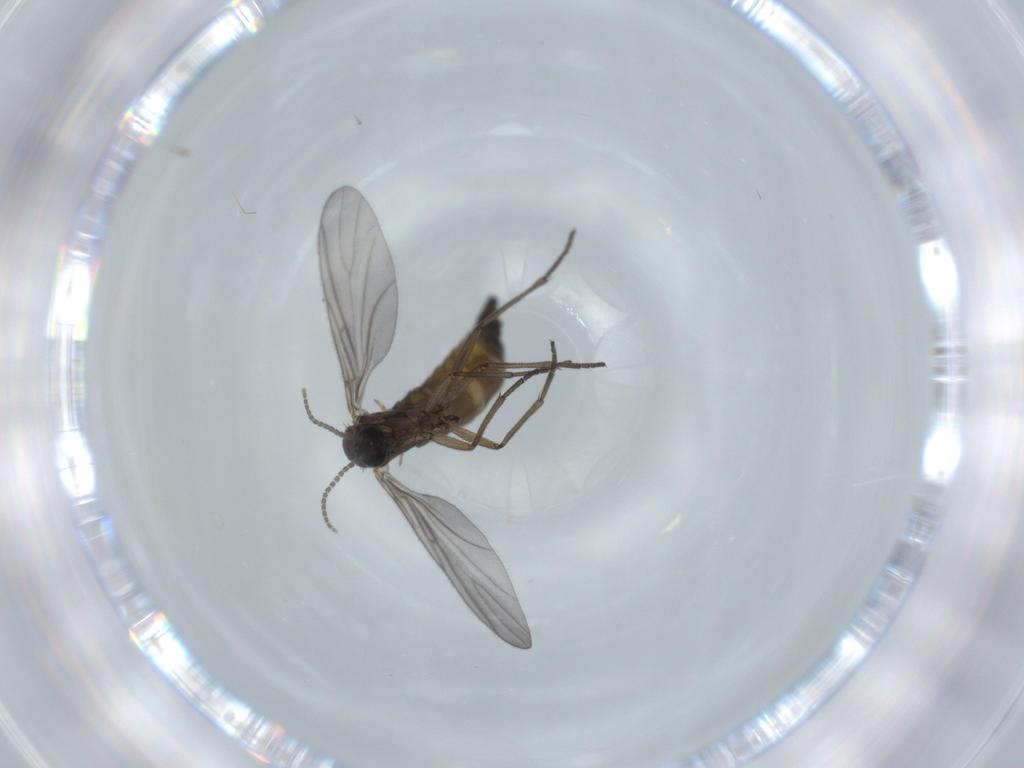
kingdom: Animalia
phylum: Arthropoda
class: Insecta
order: Diptera
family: Sciaridae
